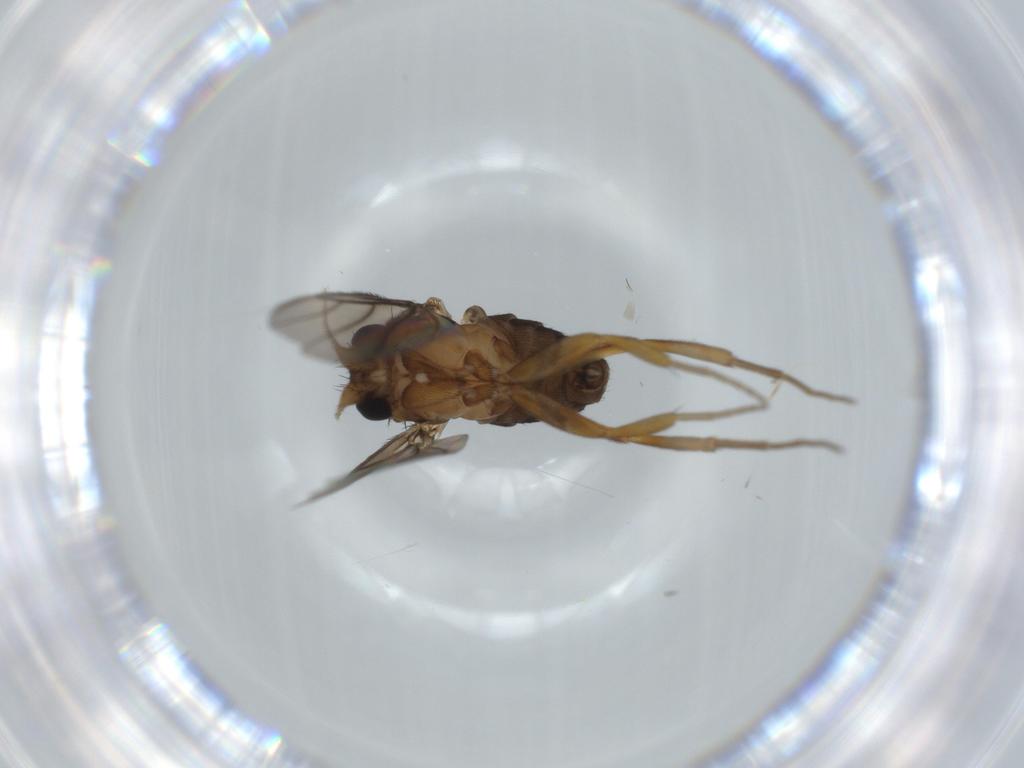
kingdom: Animalia
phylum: Arthropoda
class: Insecta
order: Diptera
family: Phoridae
